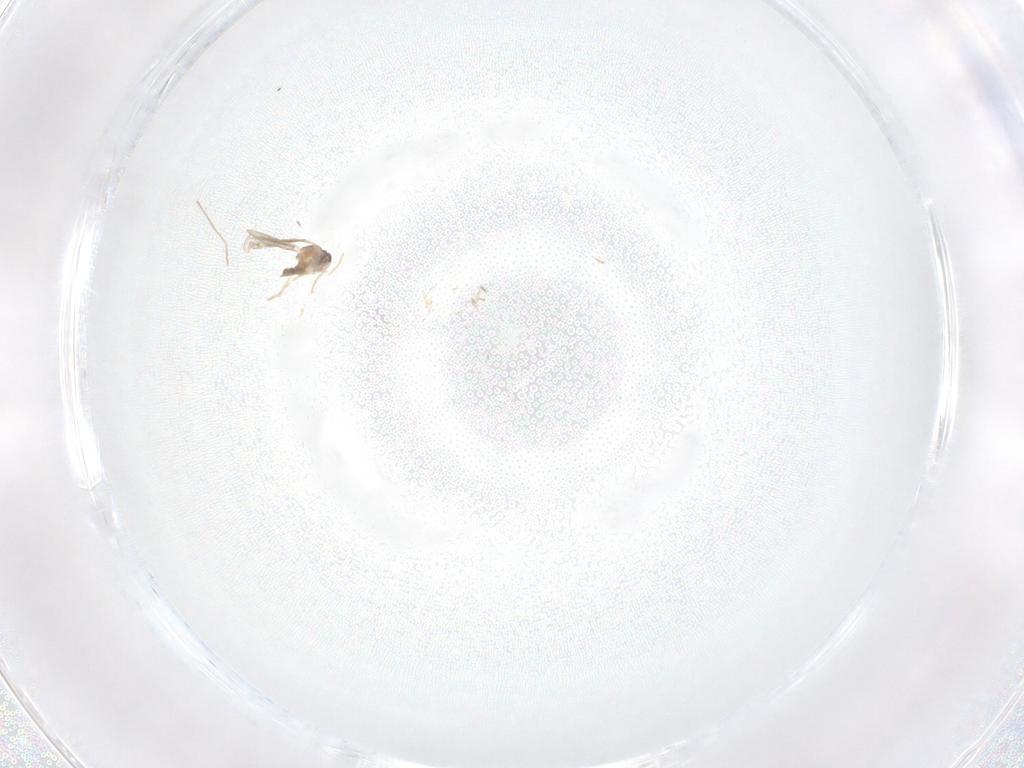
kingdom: Animalia
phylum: Arthropoda
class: Insecta
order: Diptera
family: Cecidomyiidae
